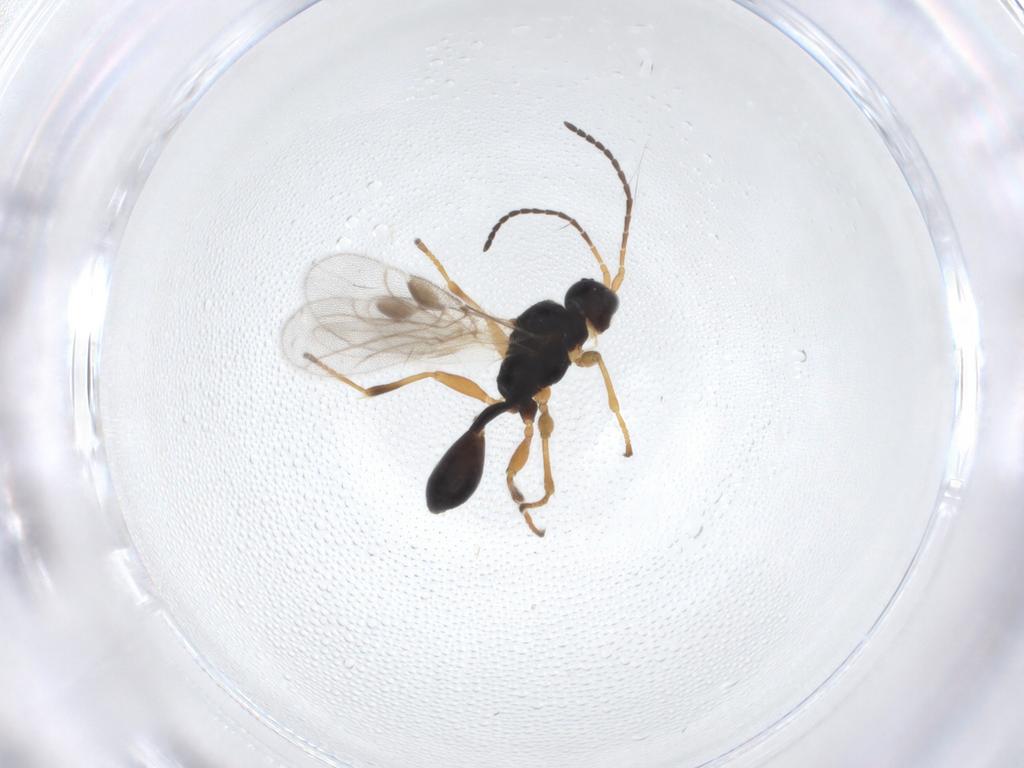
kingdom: Animalia
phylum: Arthropoda
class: Insecta
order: Hymenoptera
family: Braconidae
